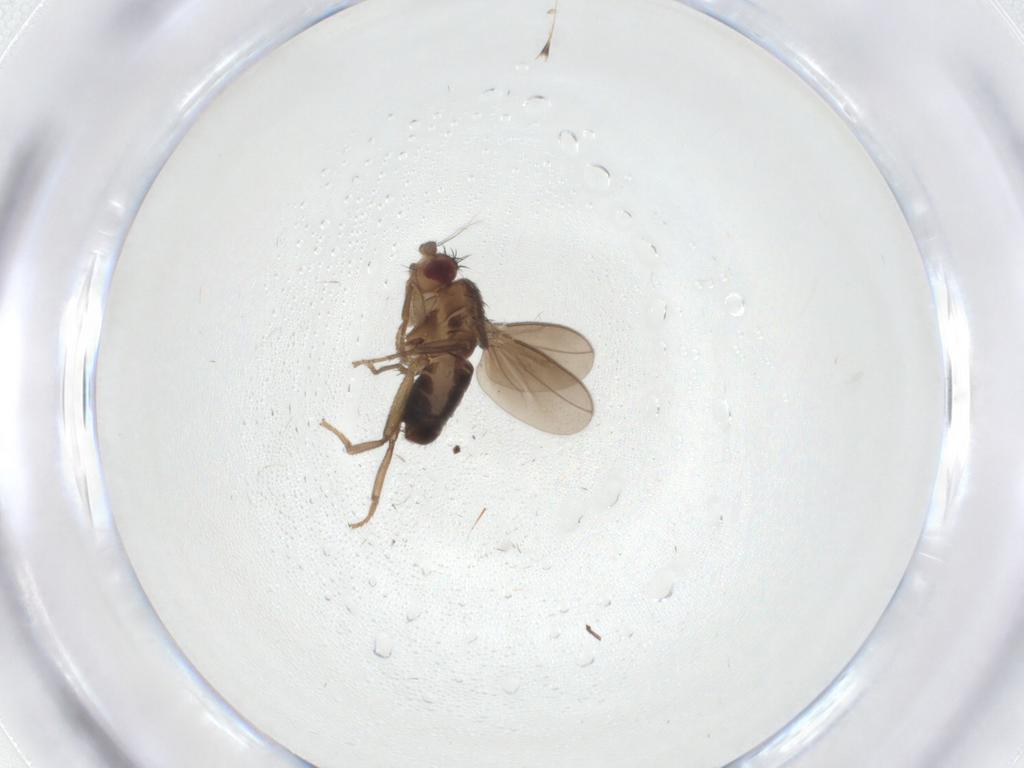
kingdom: Animalia
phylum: Arthropoda
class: Insecta
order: Diptera
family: Sphaeroceridae
